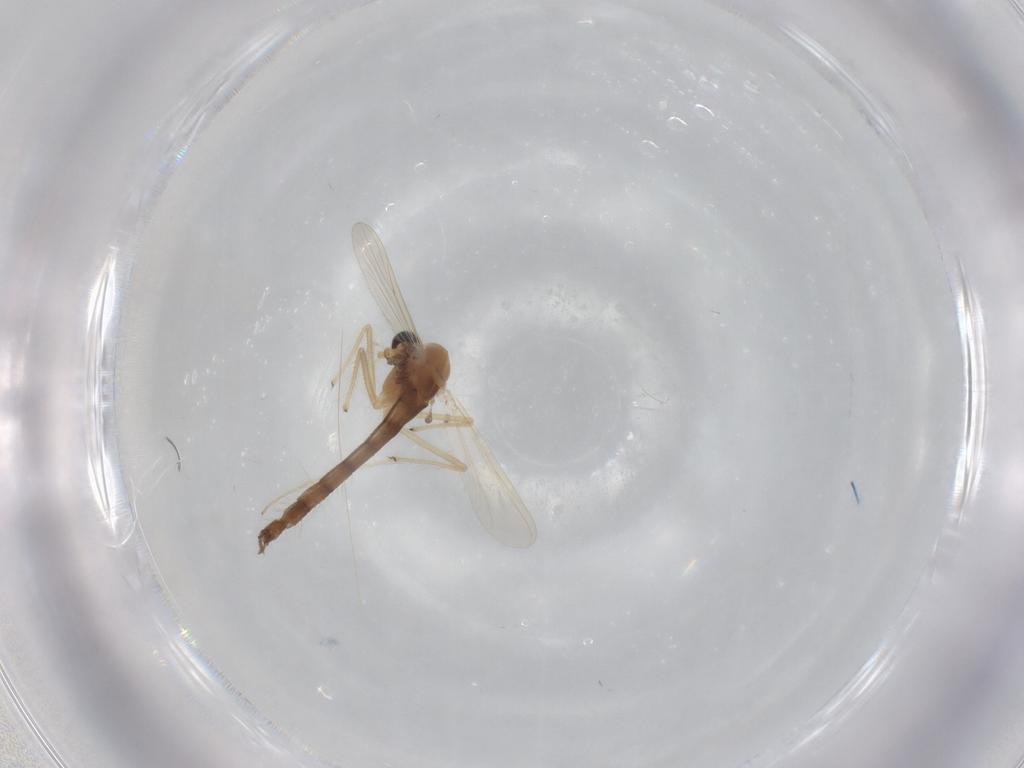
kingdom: Animalia
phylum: Arthropoda
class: Insecta
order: Diptera
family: Chironomidae
